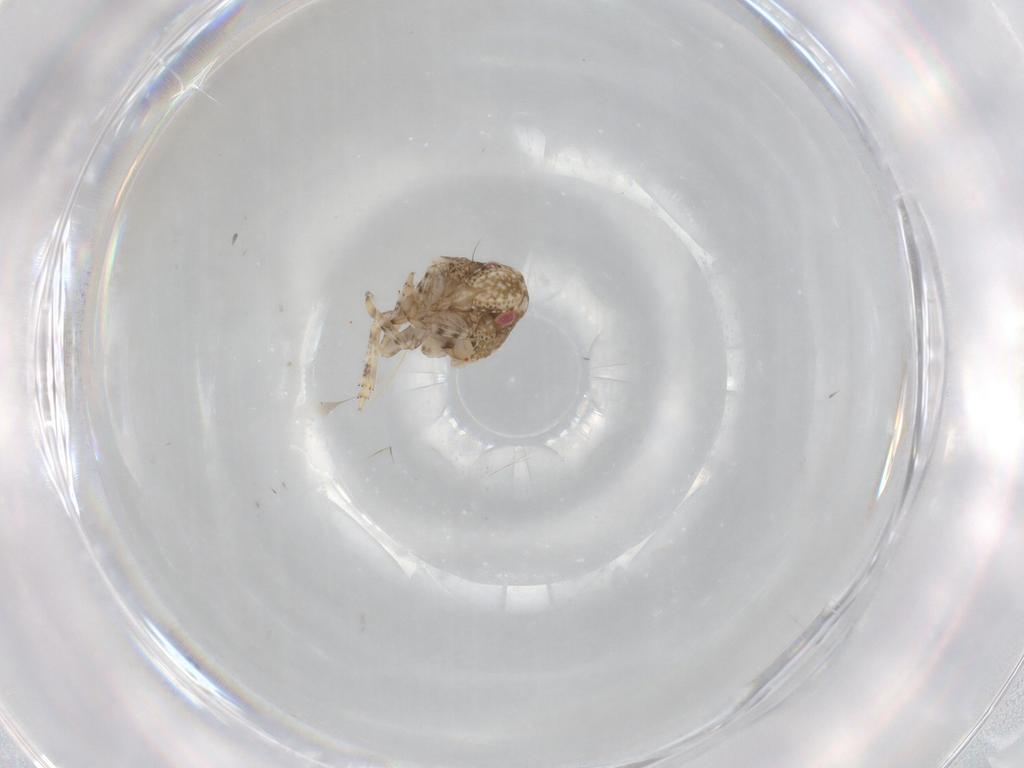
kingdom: Animalia
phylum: Arthropoda
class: Insecta
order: Hemiptera
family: Acanaloniidae
